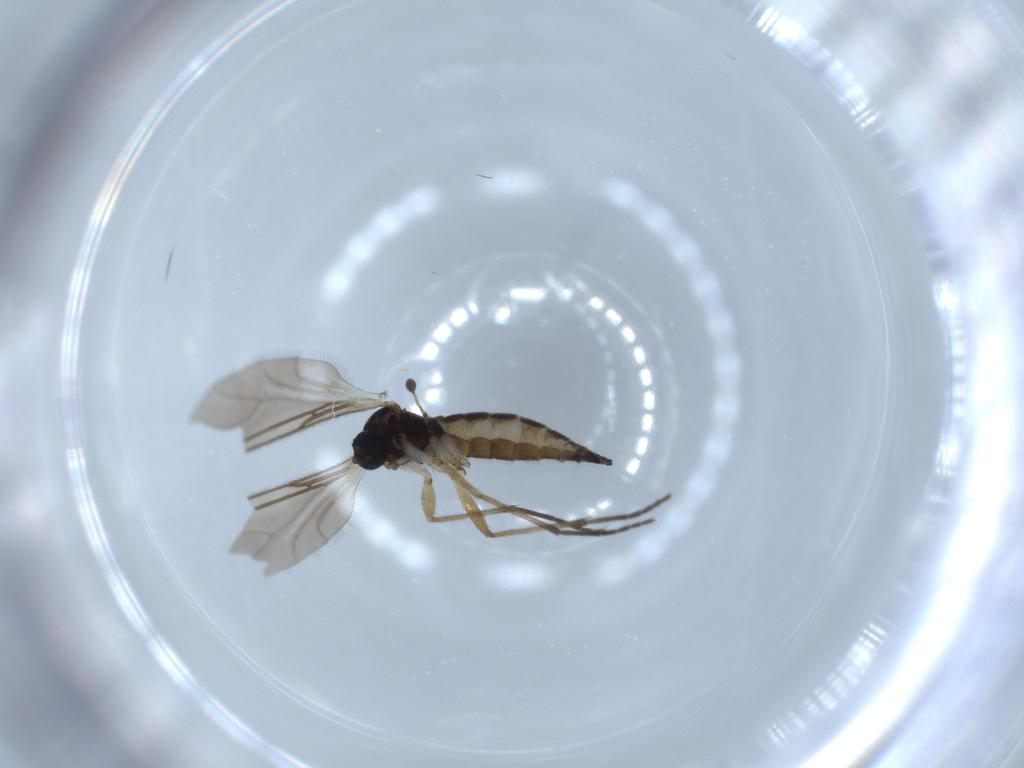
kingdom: Animalia
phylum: Arthropoda
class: Insecta
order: Diptera
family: Sciaridae
